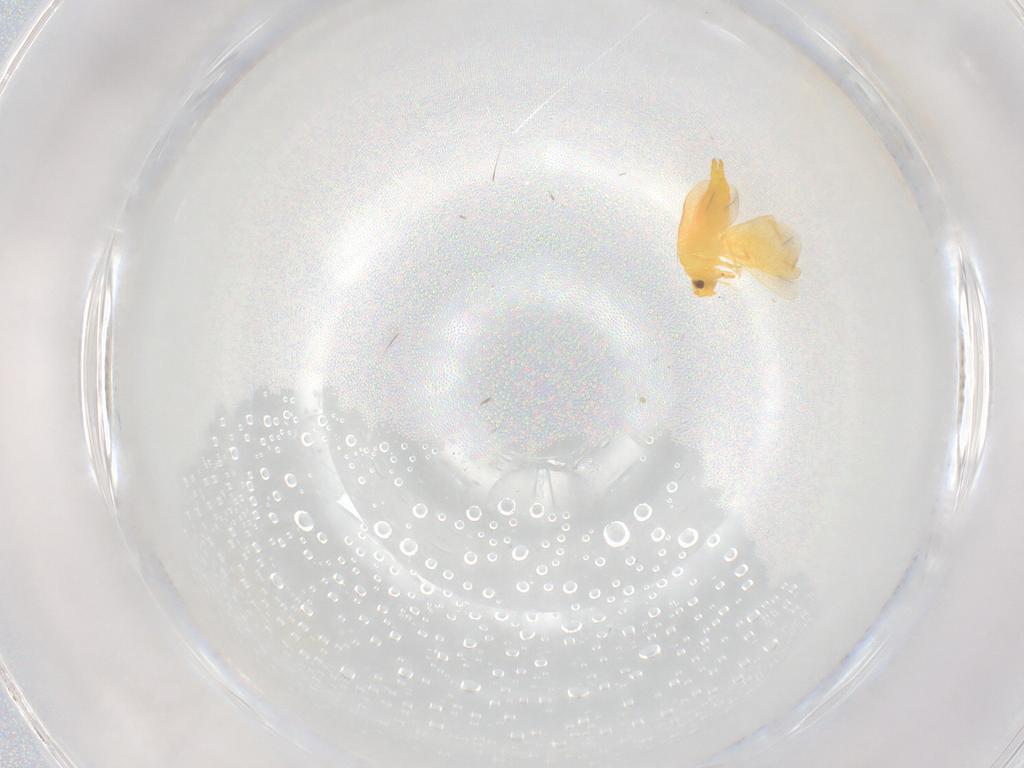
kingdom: Animalia
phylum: Arthropoda
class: Insecta
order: Hemiptera
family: Aleyrodidae
